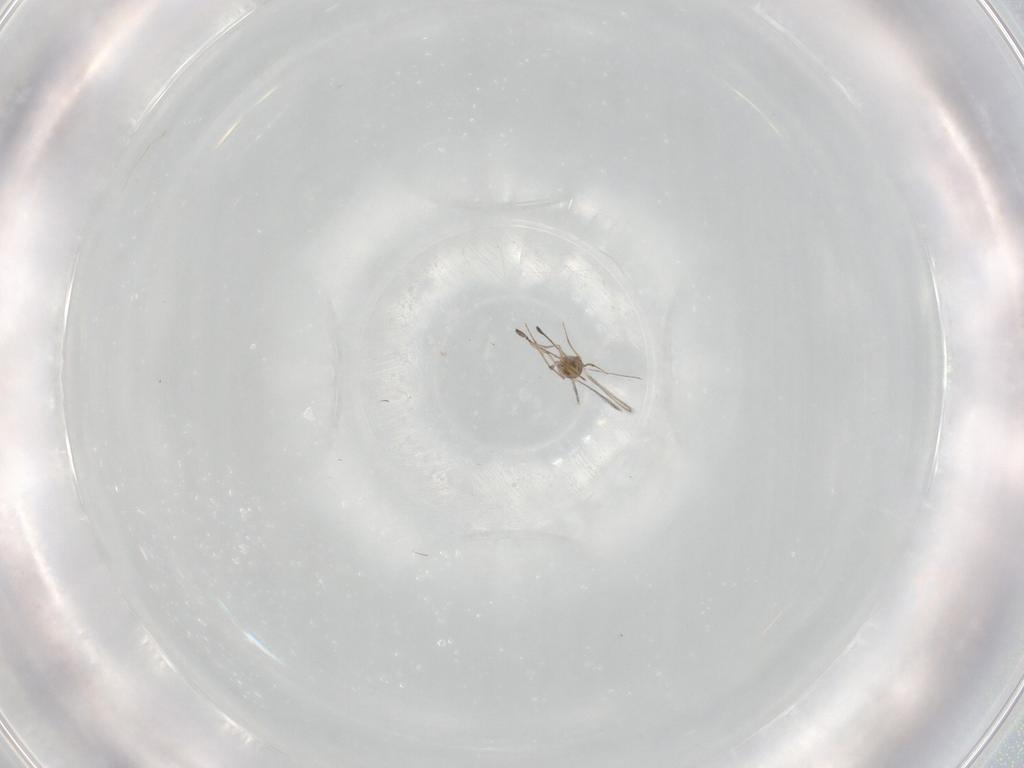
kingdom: Animalia
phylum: Arthropoda
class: Insecta
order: Hymenoptera
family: Mymaridae
